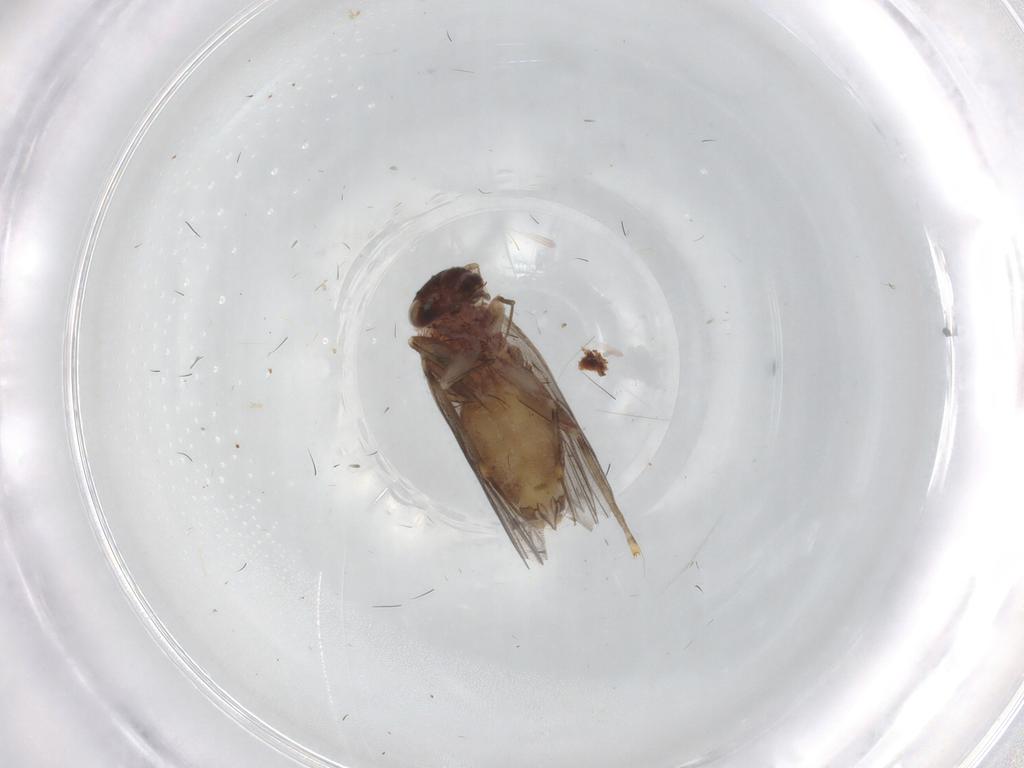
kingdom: Animalia
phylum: Arthropoda
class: Insecta
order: Psocodea
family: Lepidopsocidae
